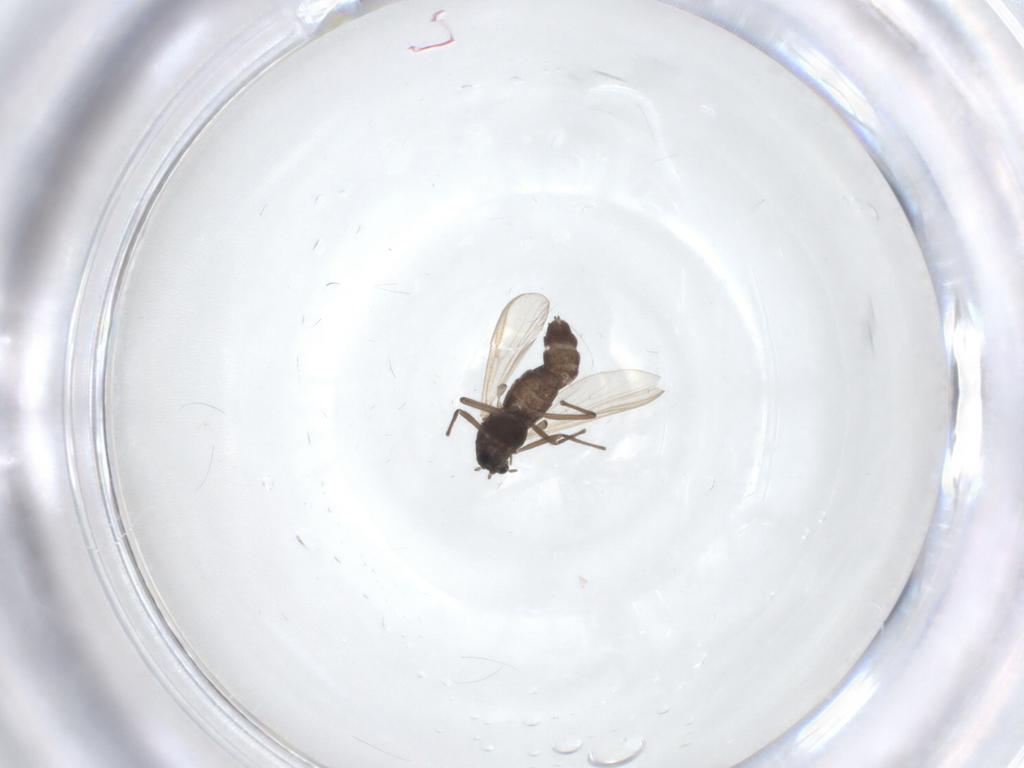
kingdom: Animalia
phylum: Arthropoda
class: Insecta
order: Diptera
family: Chironomidae
